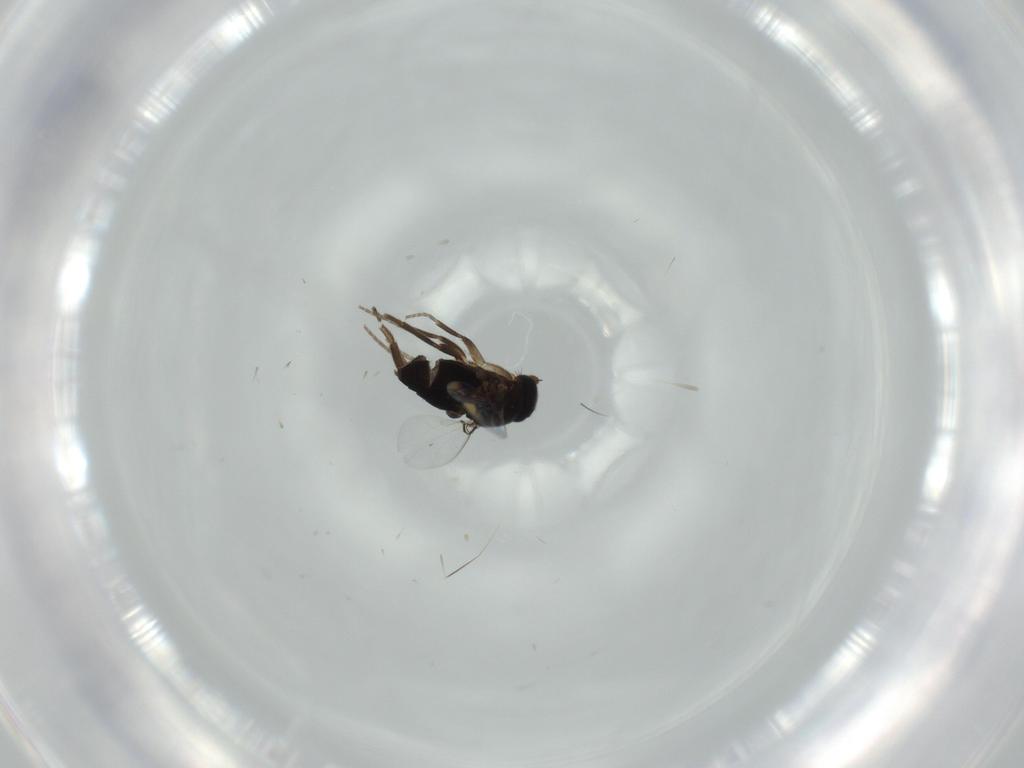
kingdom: Animalia
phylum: Arthropoda
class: Insecta
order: Diptera
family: Phoridae
